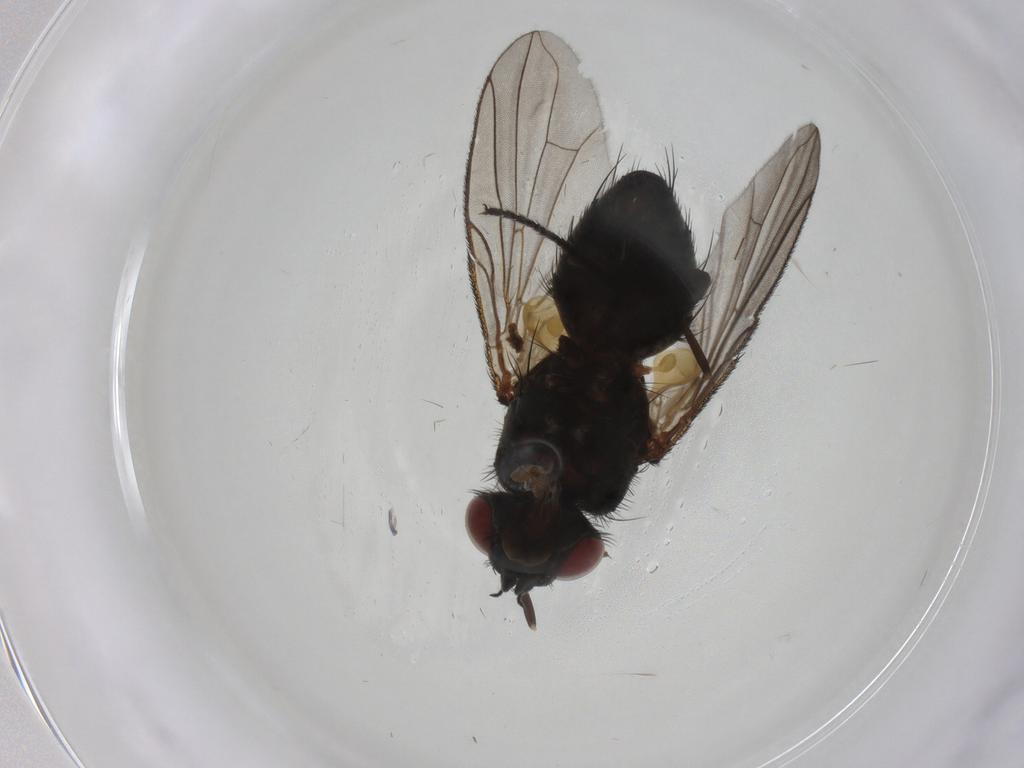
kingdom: Animalia
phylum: Arthropoda
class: Insecta
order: Diptera
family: Chironomidae
